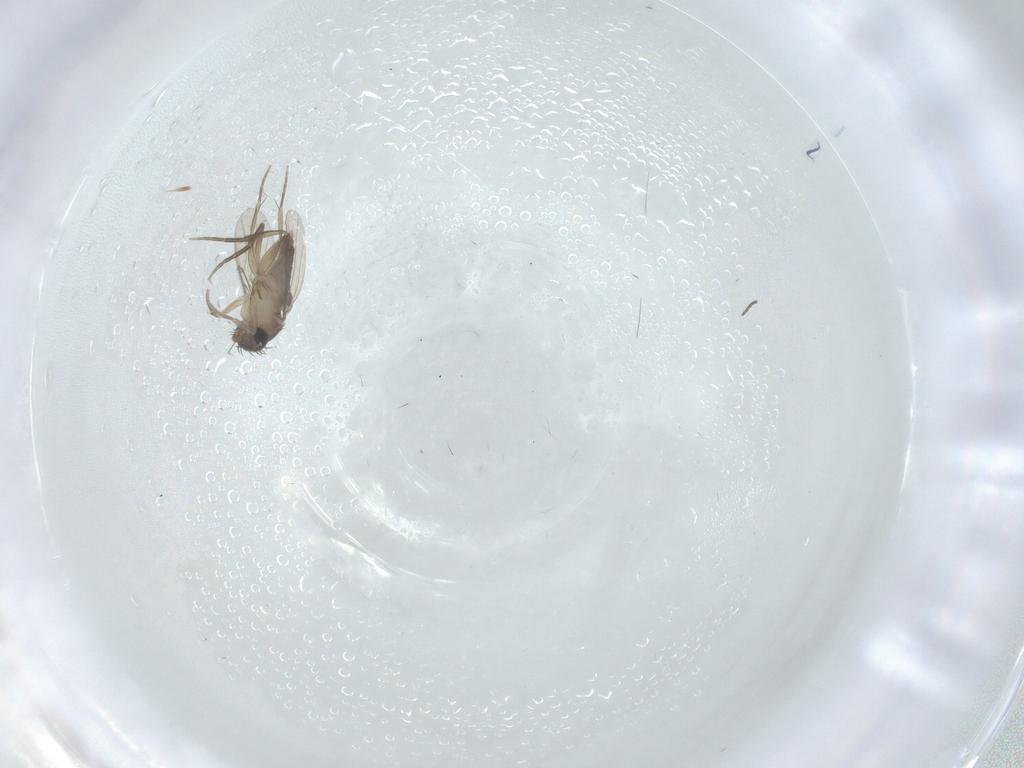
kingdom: Animalia
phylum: Arthropoda
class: Insecta
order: Diptera
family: Phoridae
